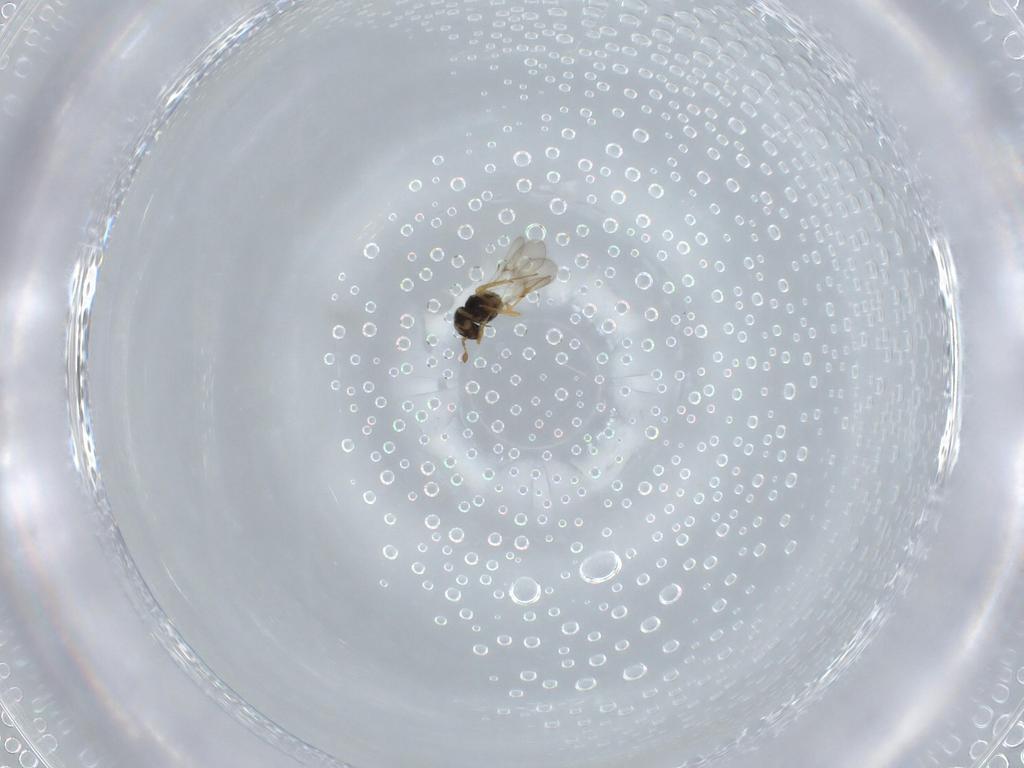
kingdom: Animalia
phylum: Arthropoda
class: Insecta
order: Hymenoptera
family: Scelionidae
